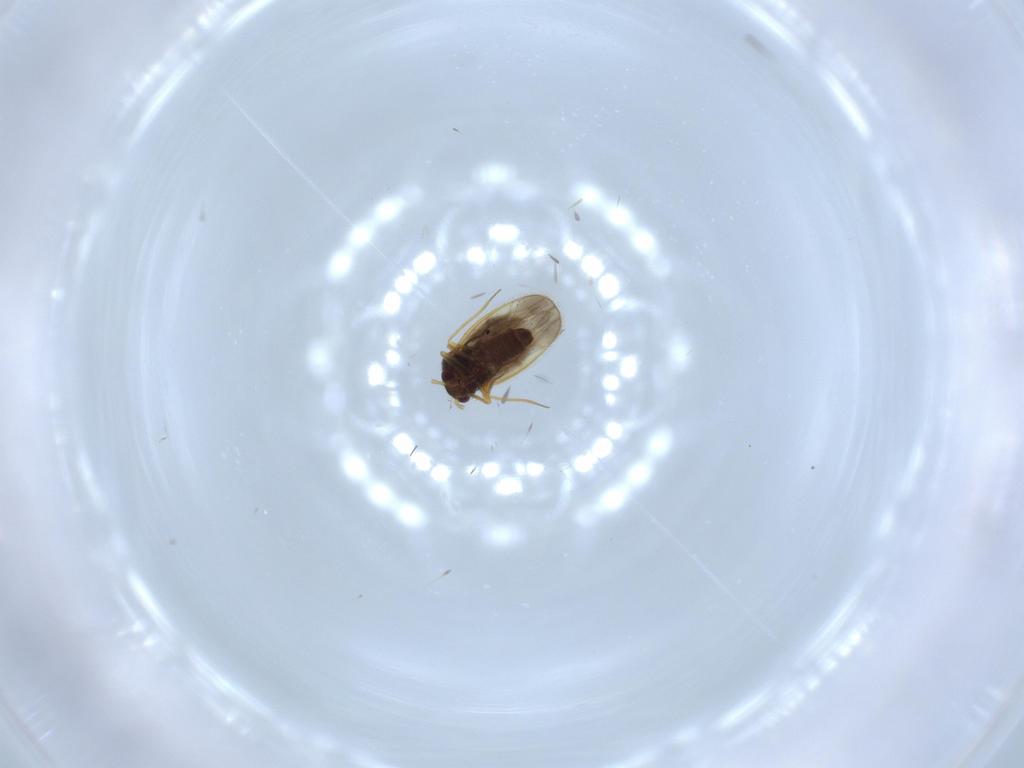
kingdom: Animalia
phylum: Arthropoda
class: Insecta
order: Hemiptera
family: Schizopteridae
